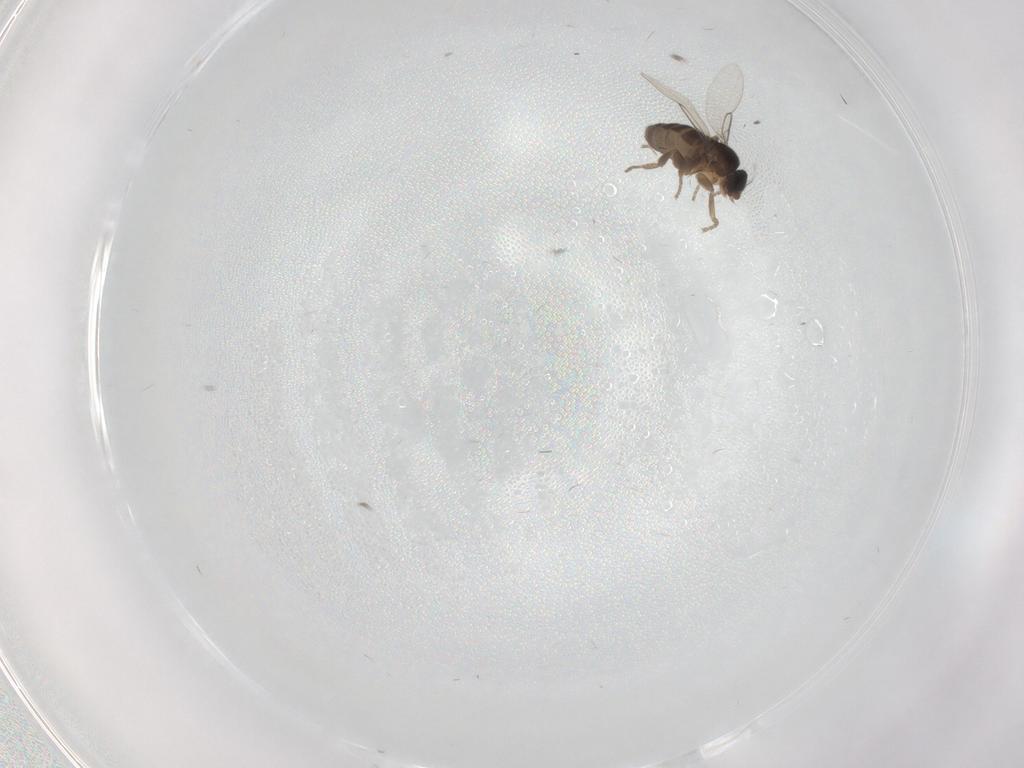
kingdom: Animalia
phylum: Arthropoda
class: Insecta
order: Diptera
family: Phoridae
